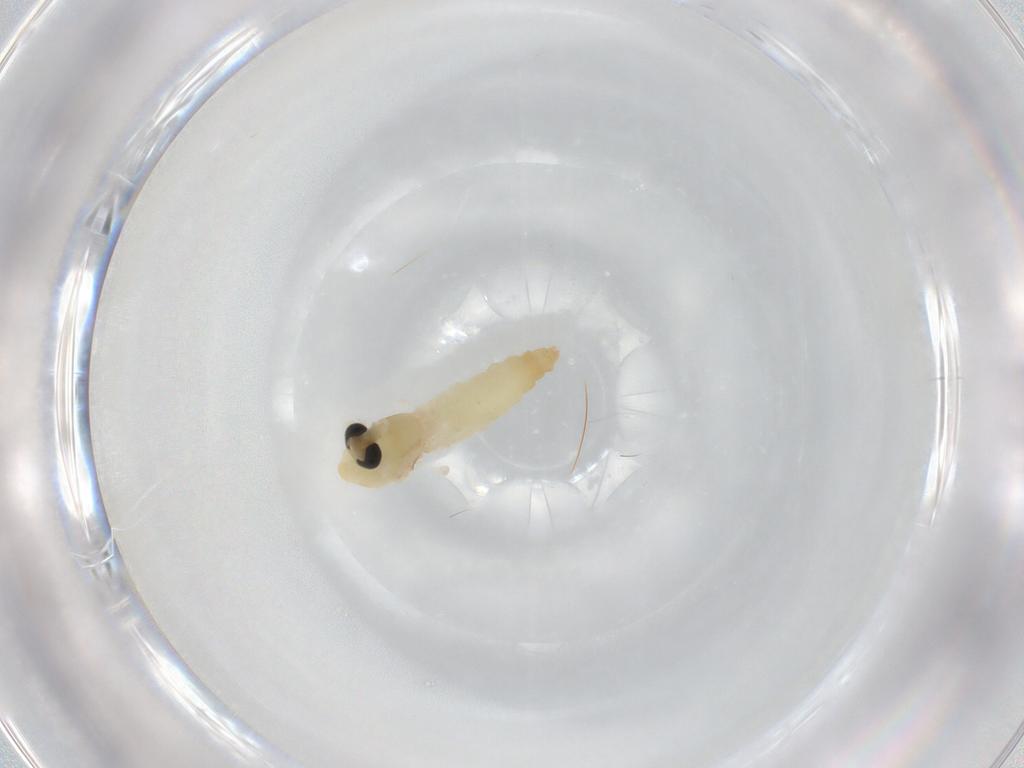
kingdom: Animalia
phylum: Arthropoda
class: Insecta
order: Diptera
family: Chironomidae
